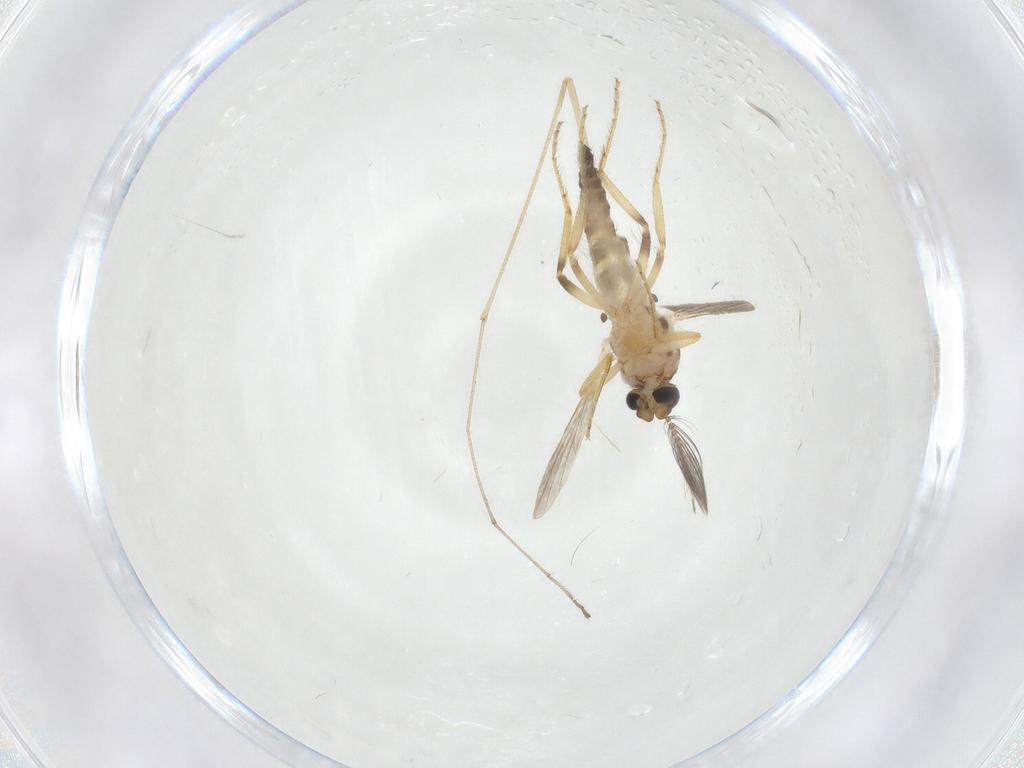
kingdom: Animalia
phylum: Arthropoda
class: Insecta
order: Diptera
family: Ceratopogonidae
